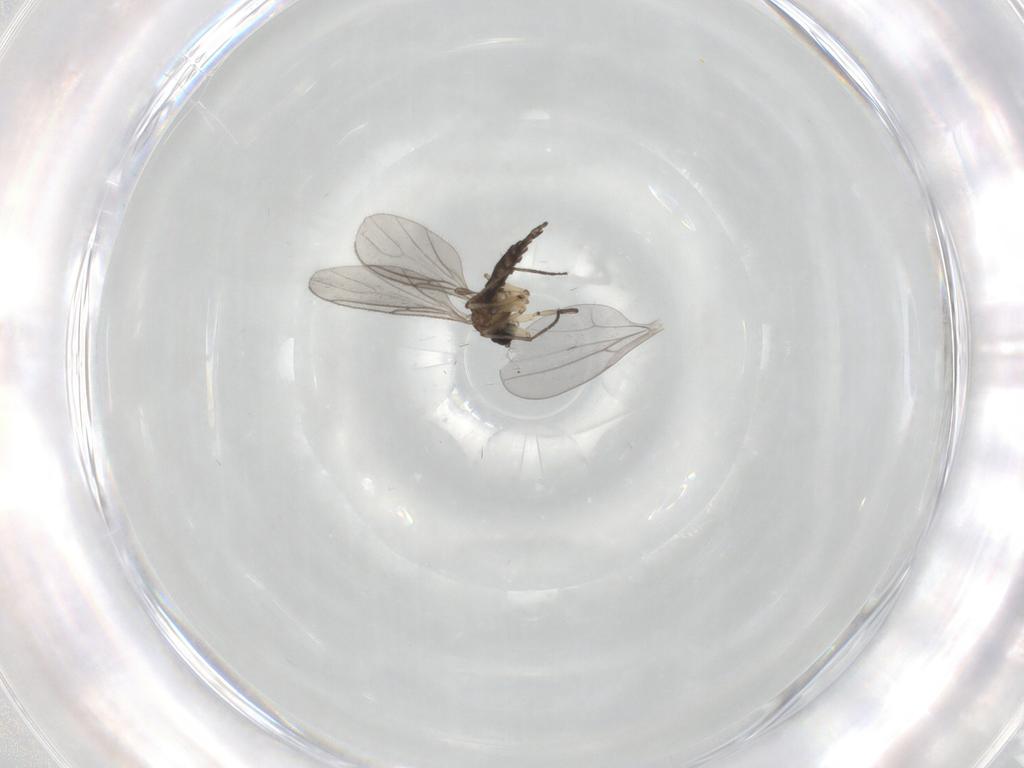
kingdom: Animalia
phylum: Arthropoda
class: Insecta
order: Diptera
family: Sciaridae
